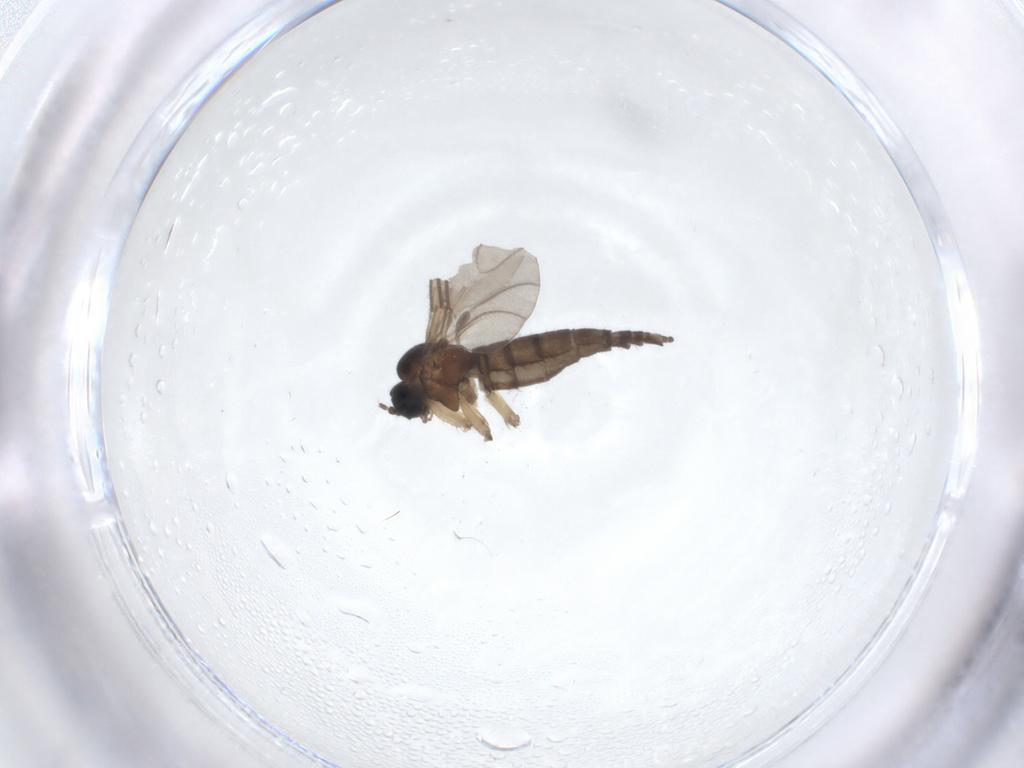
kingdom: Animalia
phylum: Arthropoda
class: Insecta
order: Diptera
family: Sciaridae
